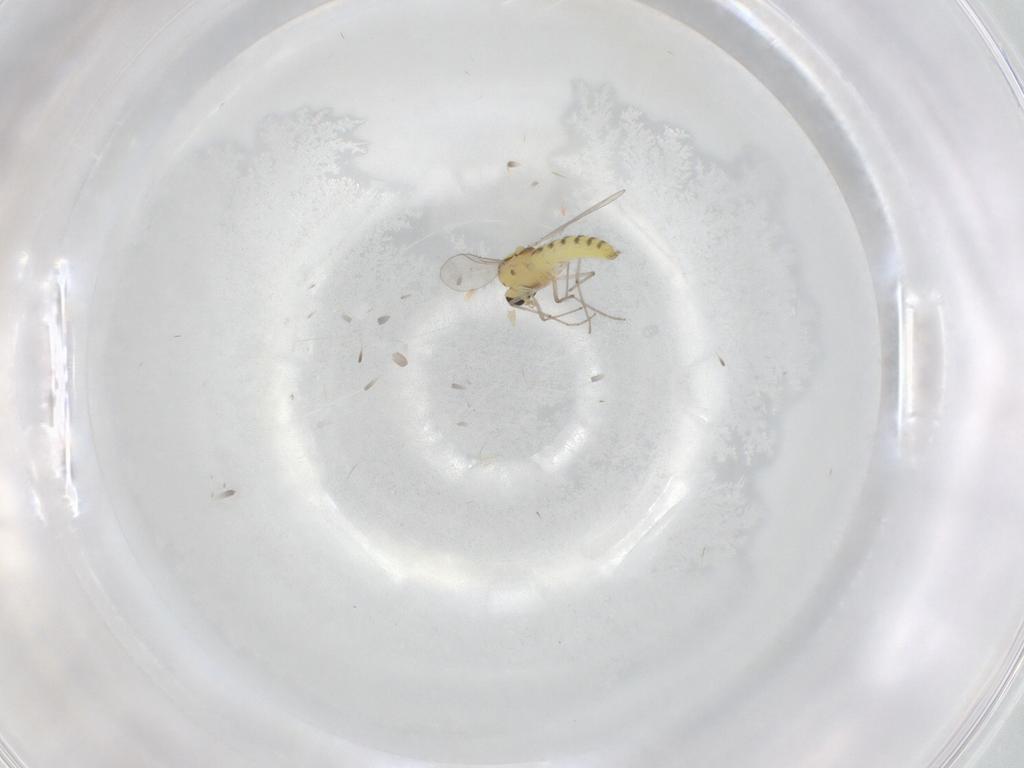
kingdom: Animalia
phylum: Arthropoda
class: Insecta
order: Diptera
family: Chironomidae
